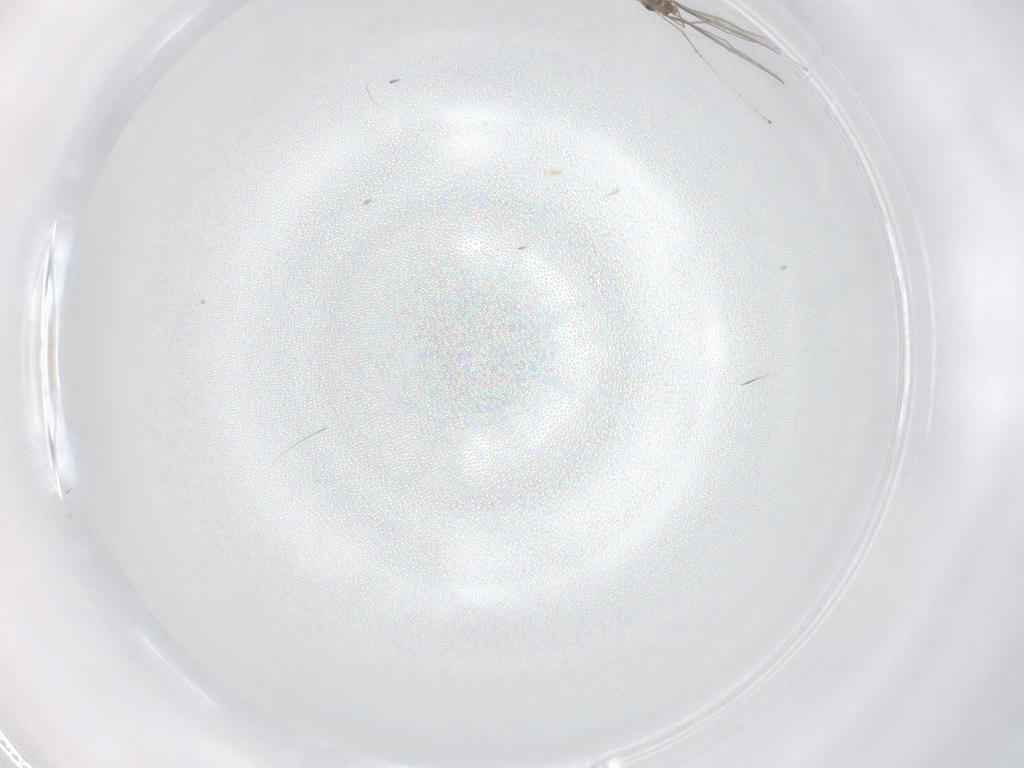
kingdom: Animalia
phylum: Arthropoda
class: Insecta
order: Diptera
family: Cecidomyiidae
